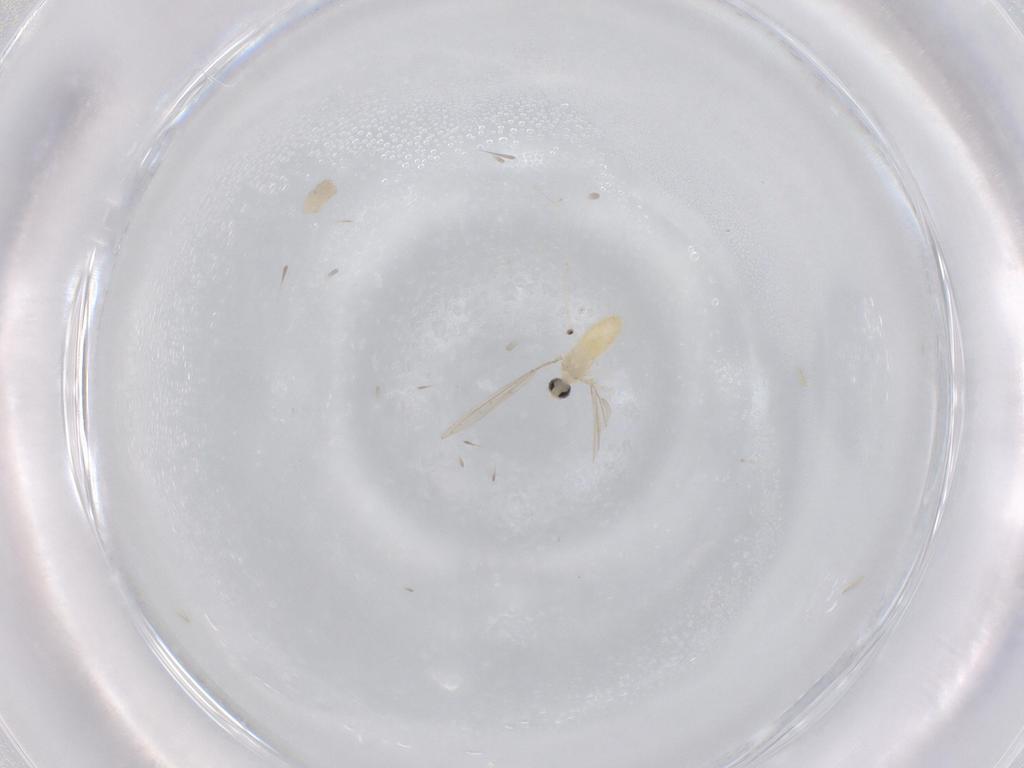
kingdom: Animalia
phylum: Arthropoda
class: Insecta
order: Diptera
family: Cecidomyiidae
